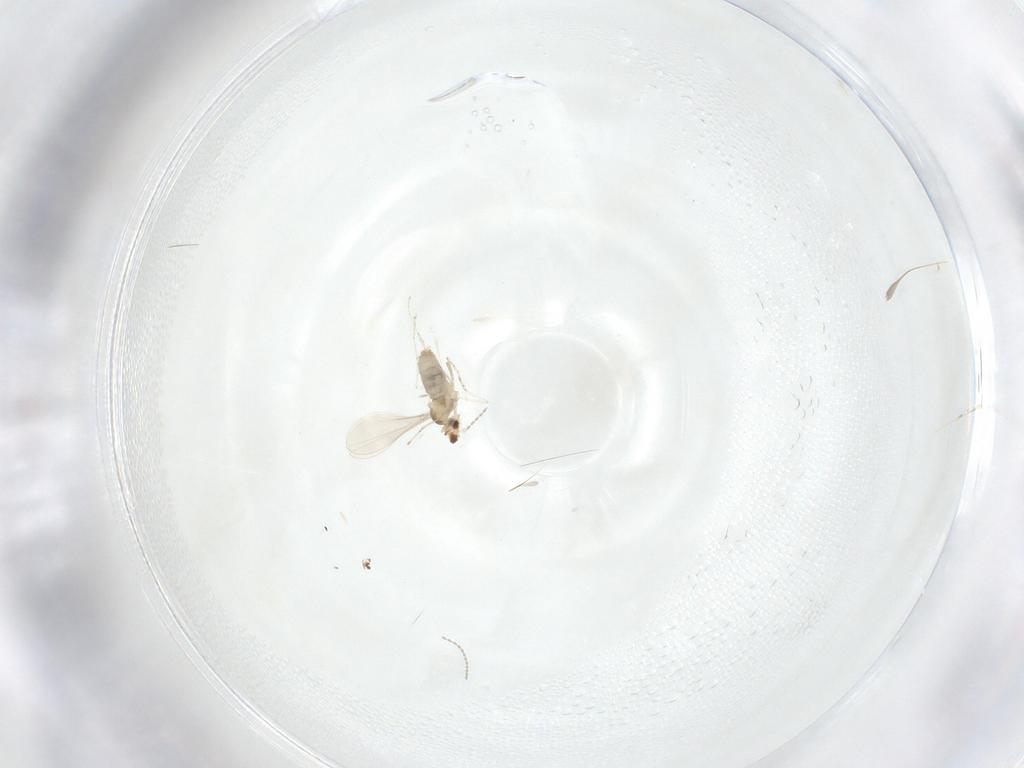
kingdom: Animalia
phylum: Arthropoda
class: Insecta
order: Diptera
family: Cecidomyiidae
